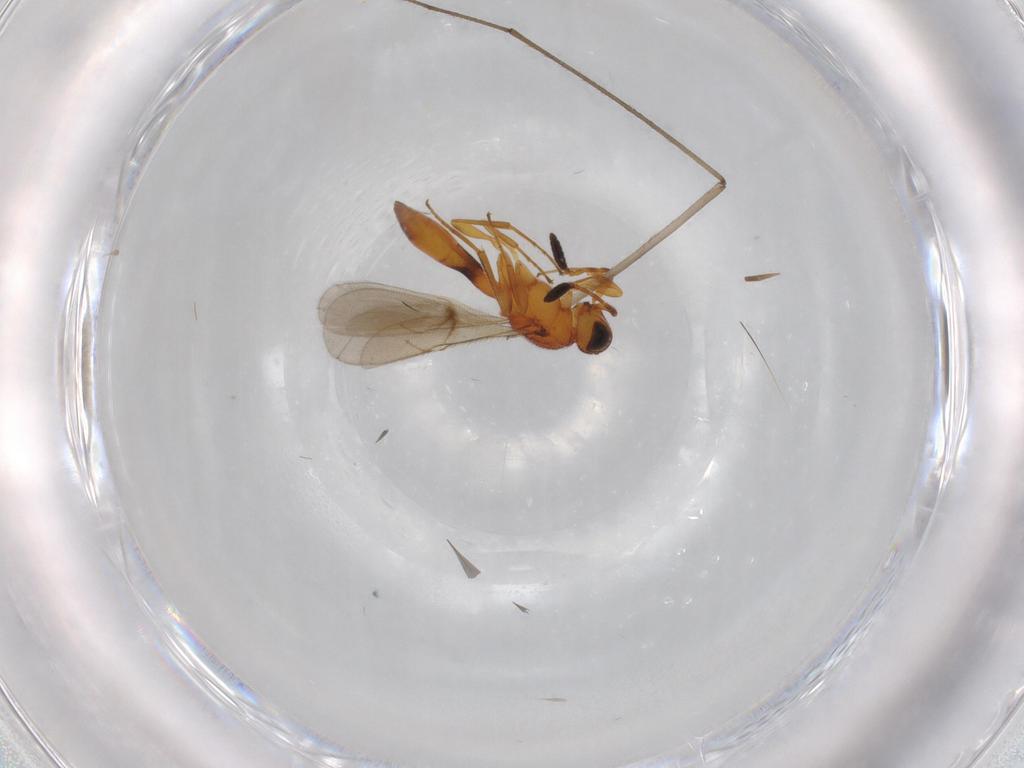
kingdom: Animalia
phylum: Arthropoda
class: Insecta
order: Hymenoptera
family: Scelionidae
